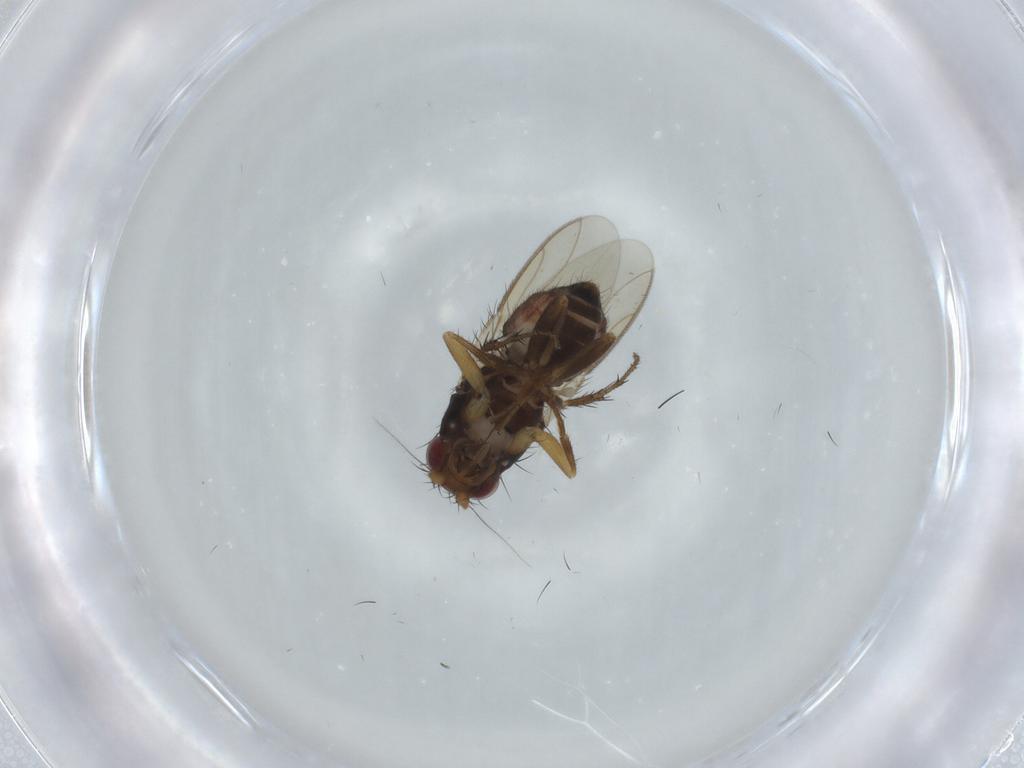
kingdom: Animalia
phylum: Arthropoda
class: Insecta
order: Diptera
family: Sphaeroceridae
